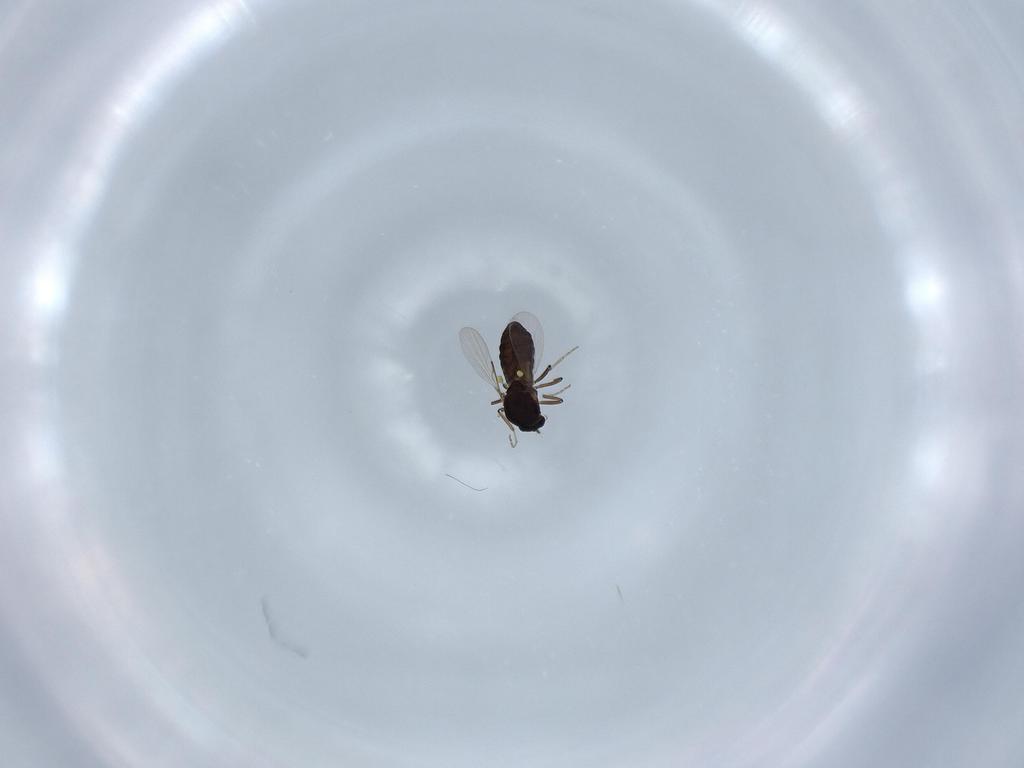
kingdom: Animalia
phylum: Arthropoda
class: Insecta
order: Diptera
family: Ceratopogonidae
